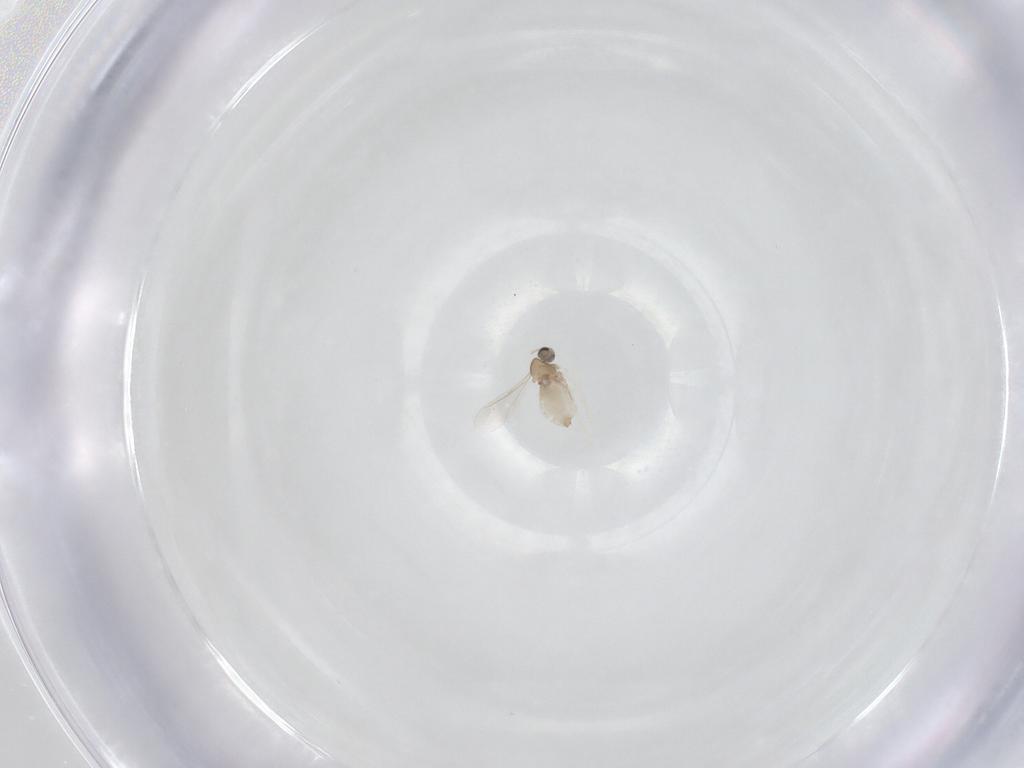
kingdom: Animalia
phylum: Arthropoda
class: Insecta
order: Diptera
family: Cecidomyiidae
